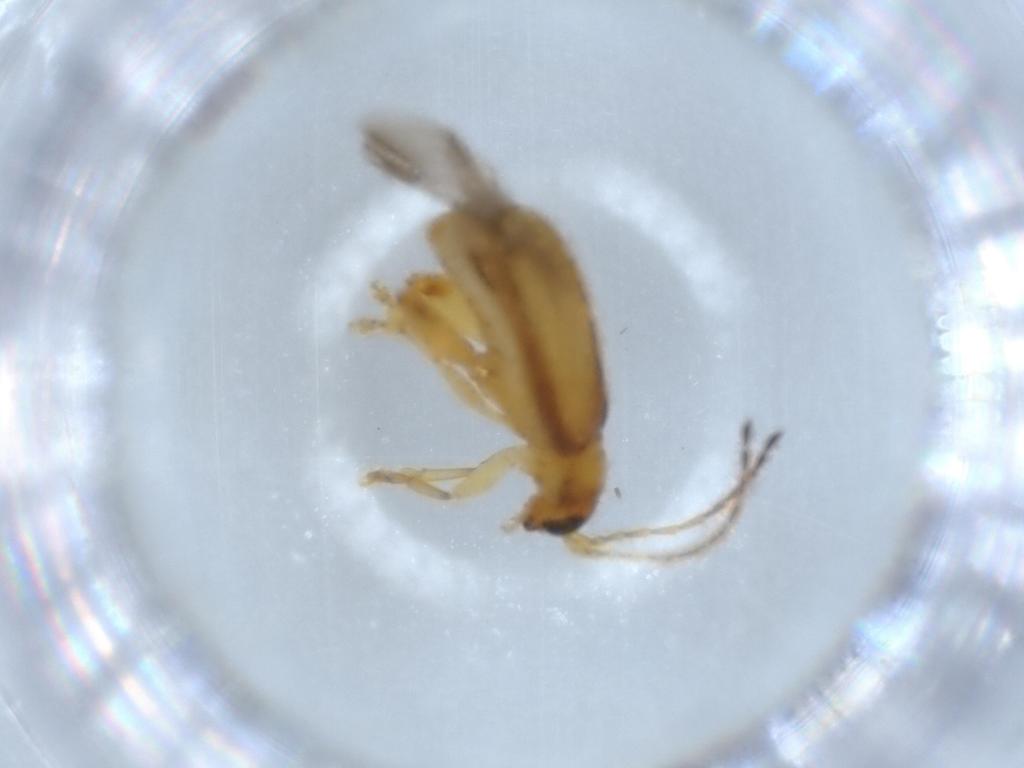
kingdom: Animalia
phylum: Arthropoda
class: Insecta
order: Coleoptera
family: Chrysomelidae
